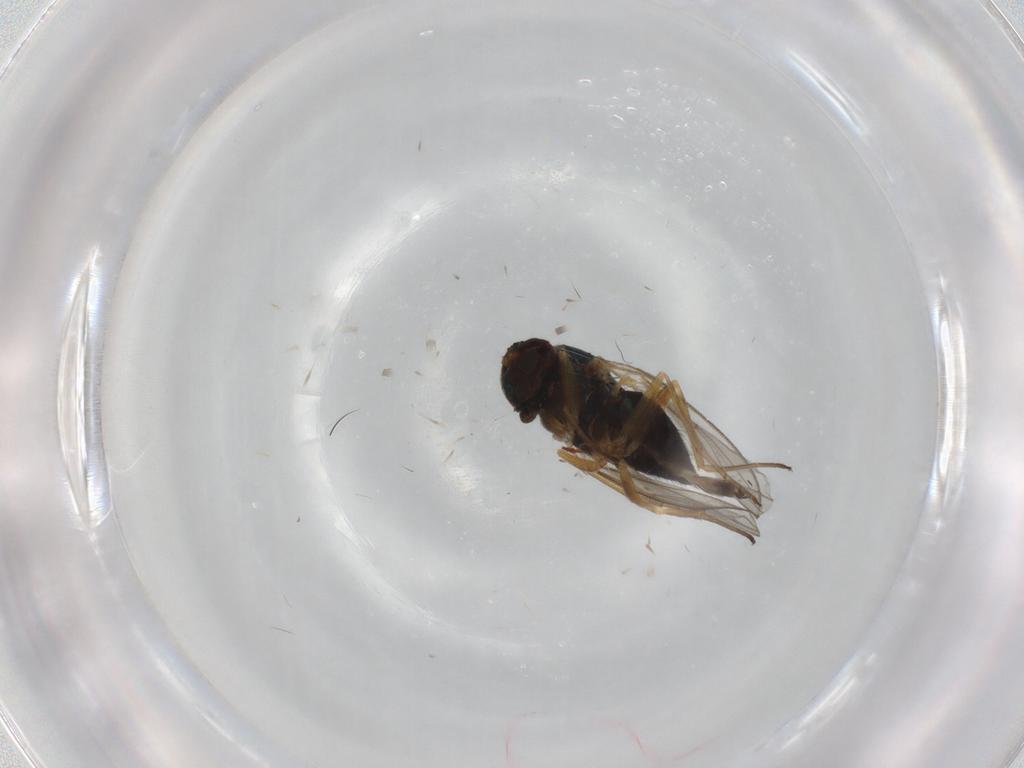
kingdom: Animalia
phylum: Arthropoda
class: Insecta
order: Diptera
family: Dolichopodidae
